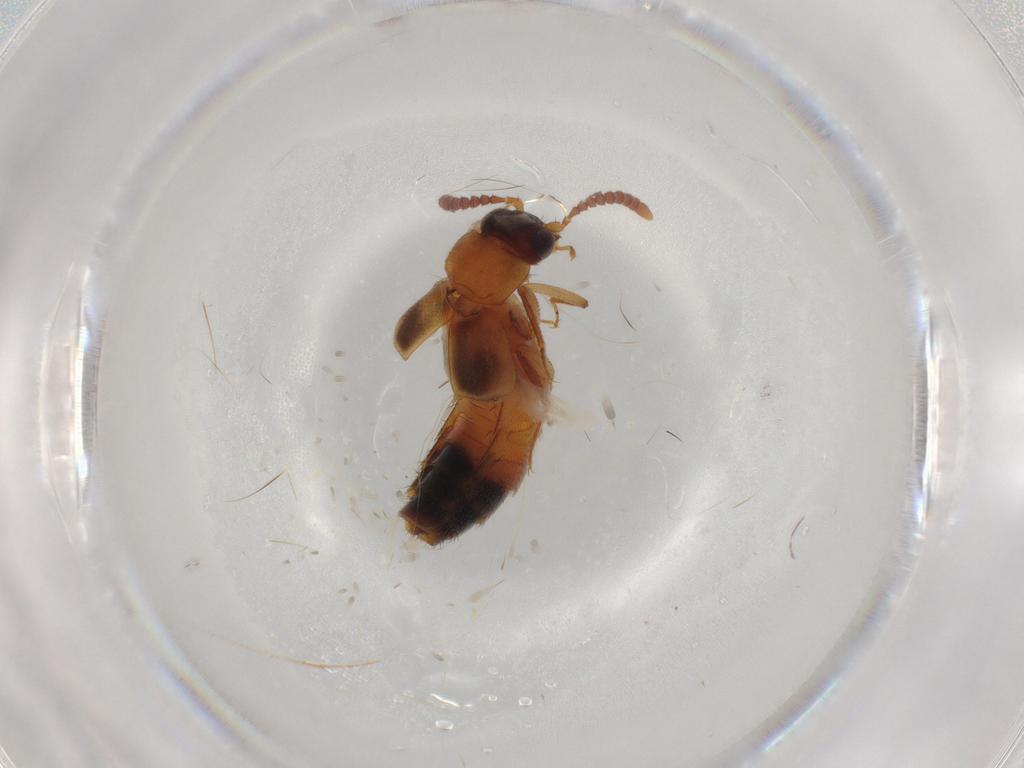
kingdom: Animalia
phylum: Arthropoda
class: Insecta
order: Coleoptera
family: Staphylinidae
